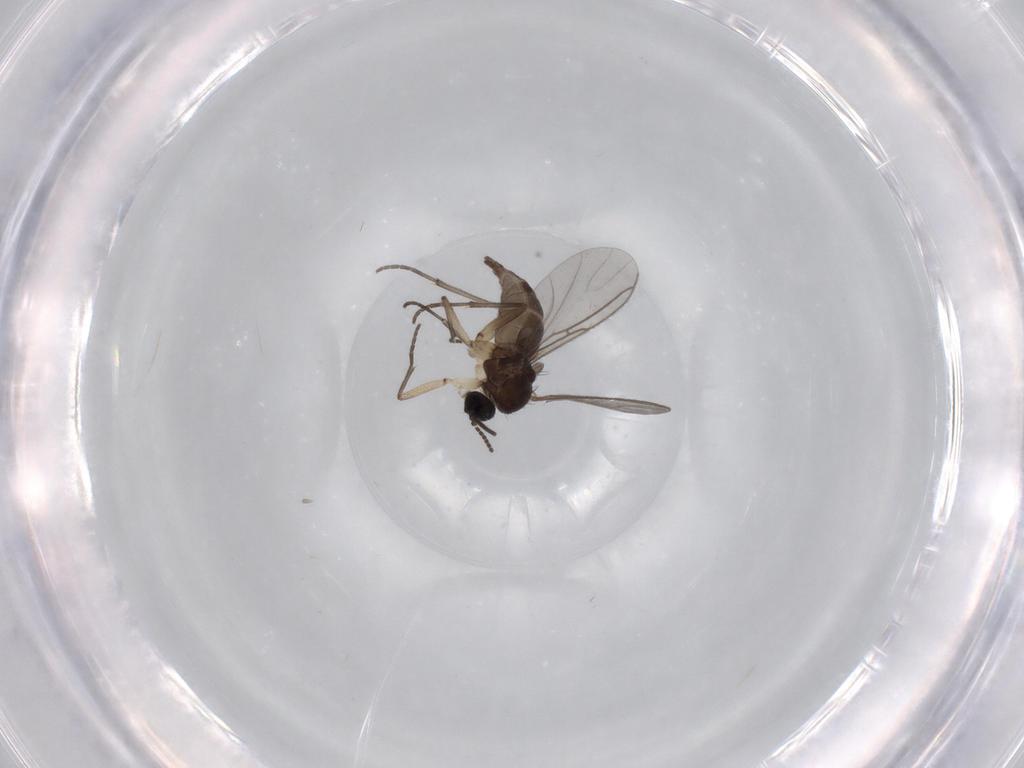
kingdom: Animalia
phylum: Arthropoda
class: Insecta
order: Diptera
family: Sciaridae
